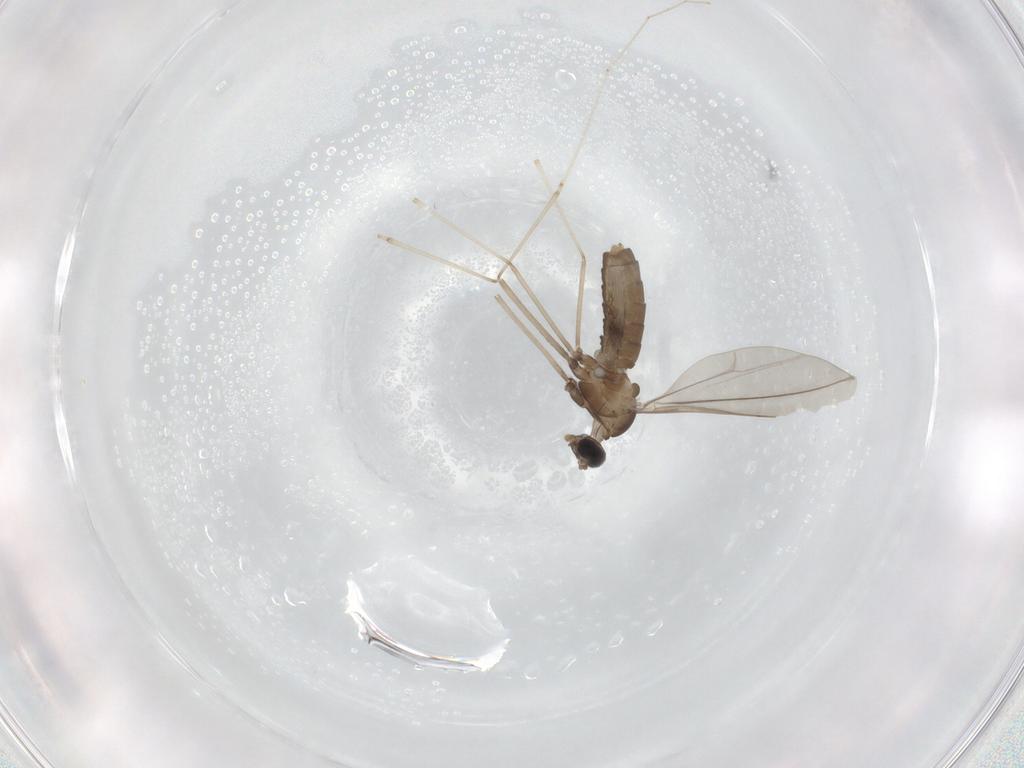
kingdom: Animalia
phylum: Arthropoda
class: Insecta
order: Diptera
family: Cecidomyiidae
